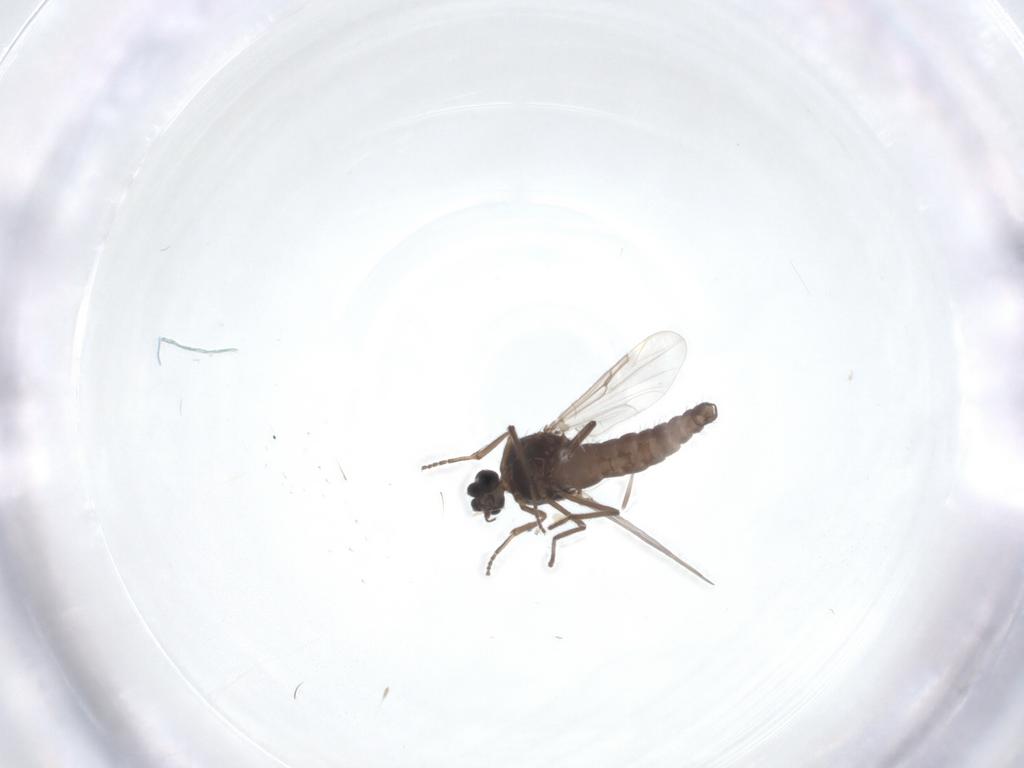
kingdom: Animalia
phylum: Arthropoda
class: Insecta
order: Diptera
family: Ceratopogonidae
